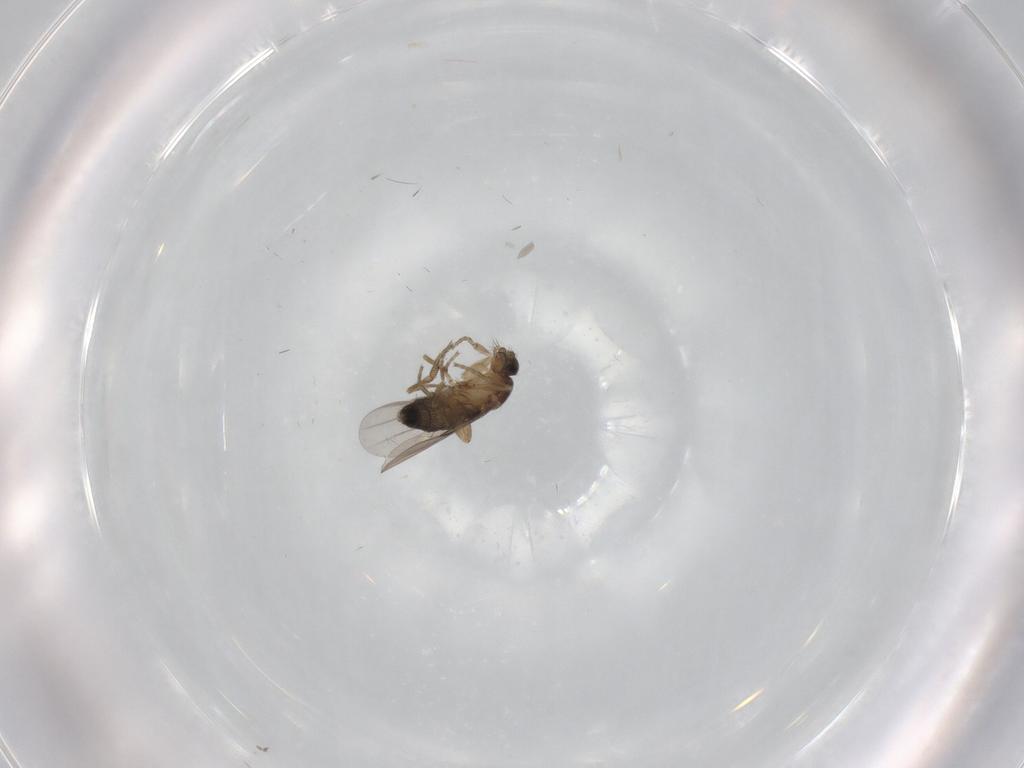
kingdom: Animalia
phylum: Arthropoda
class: Insecta
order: Diptera
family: Phoridae
